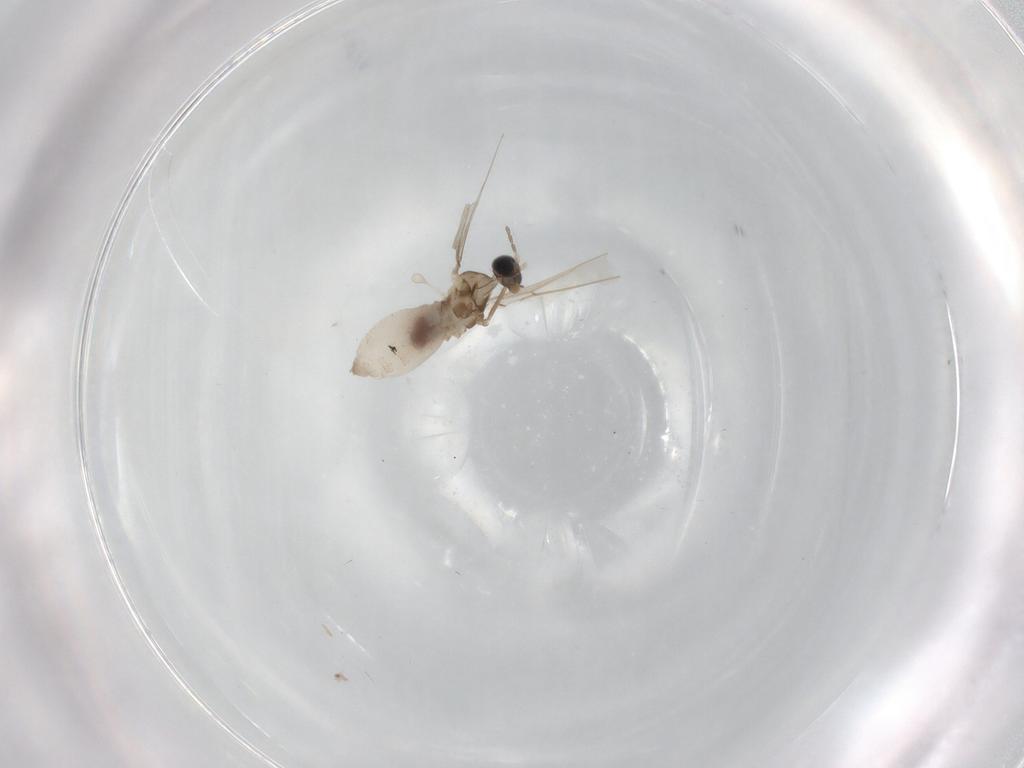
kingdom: Animalia
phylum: Arthropoda
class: Insecta
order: Diptera
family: Cecidomyiidae
